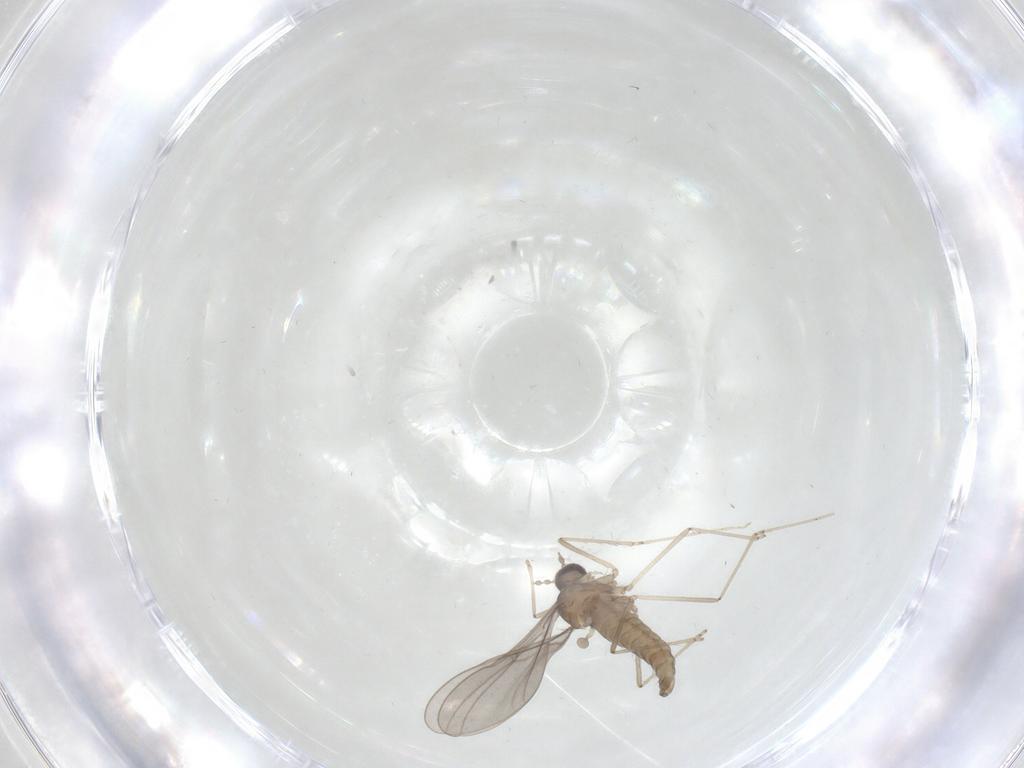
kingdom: Animalia
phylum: Arthropoda
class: Insecta
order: Diptera
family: Cecidomyiidae
